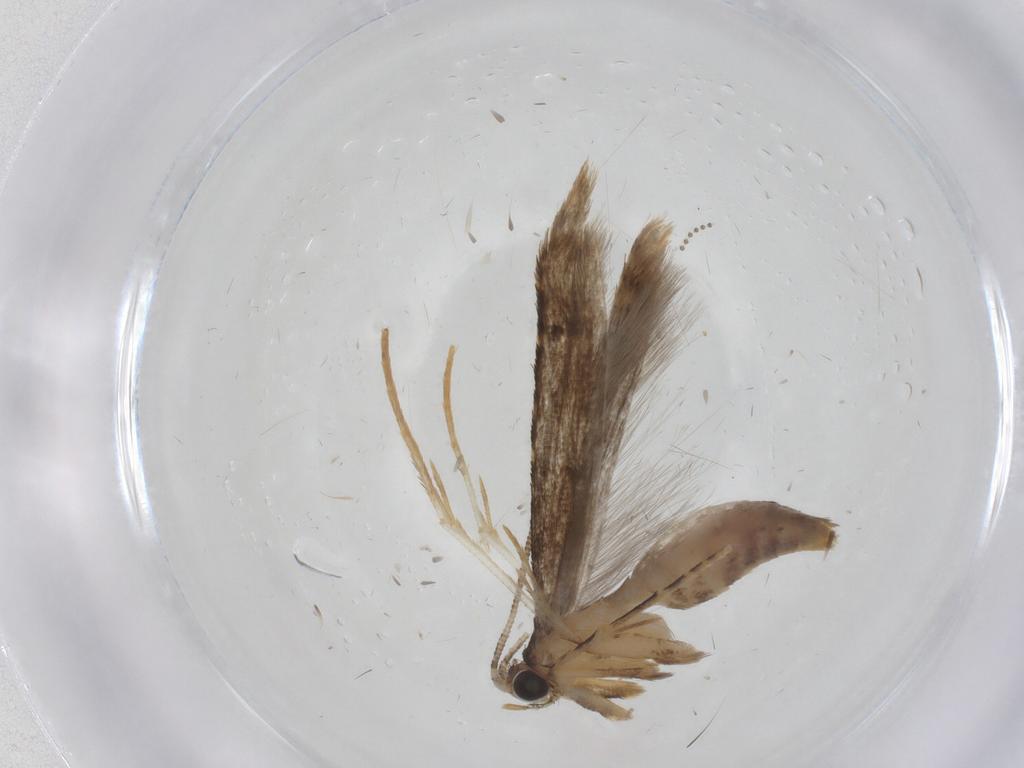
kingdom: Animalia
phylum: Arthropoda
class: Insecta
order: Lepidoptera
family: Tineidae
